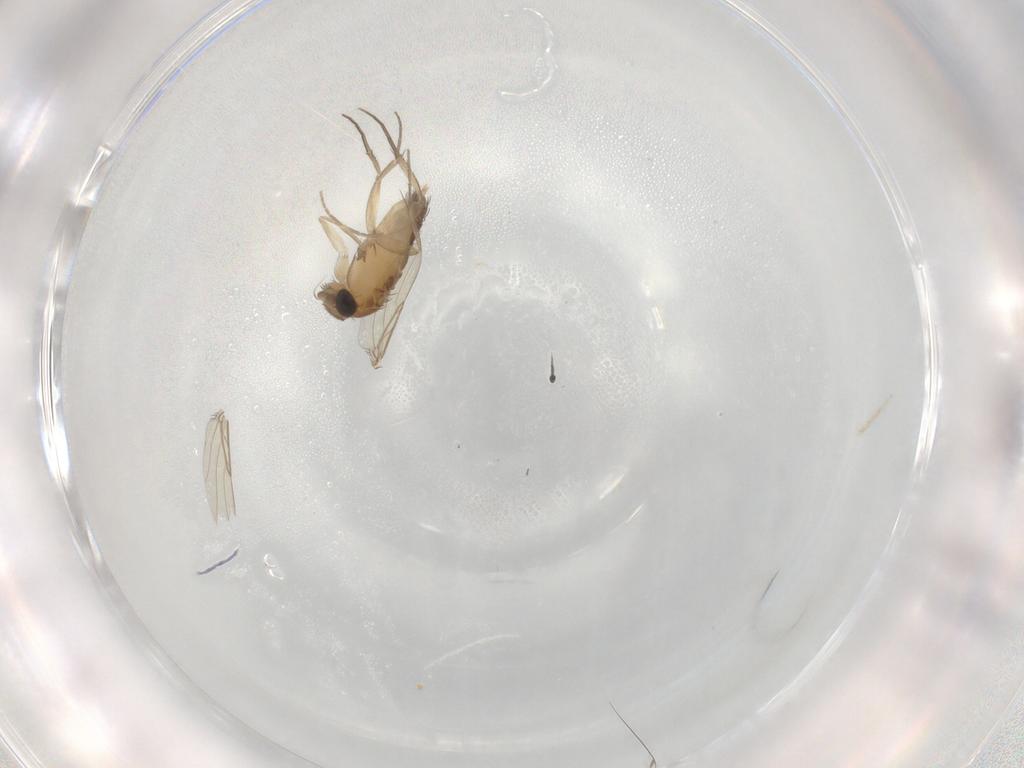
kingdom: Animalia
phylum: Arthropoda
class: Insecta
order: Diptera
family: Phoridae
